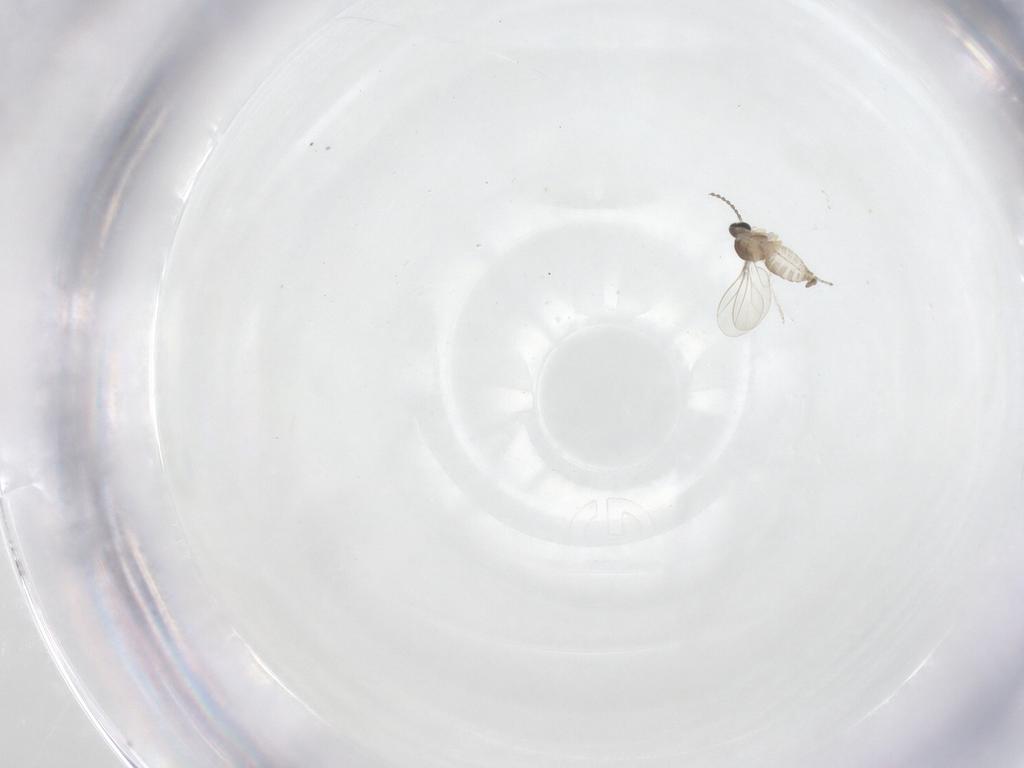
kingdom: Animalia
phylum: Arthropoda
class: Insecta
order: Diptera
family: Cecidomyiidae
